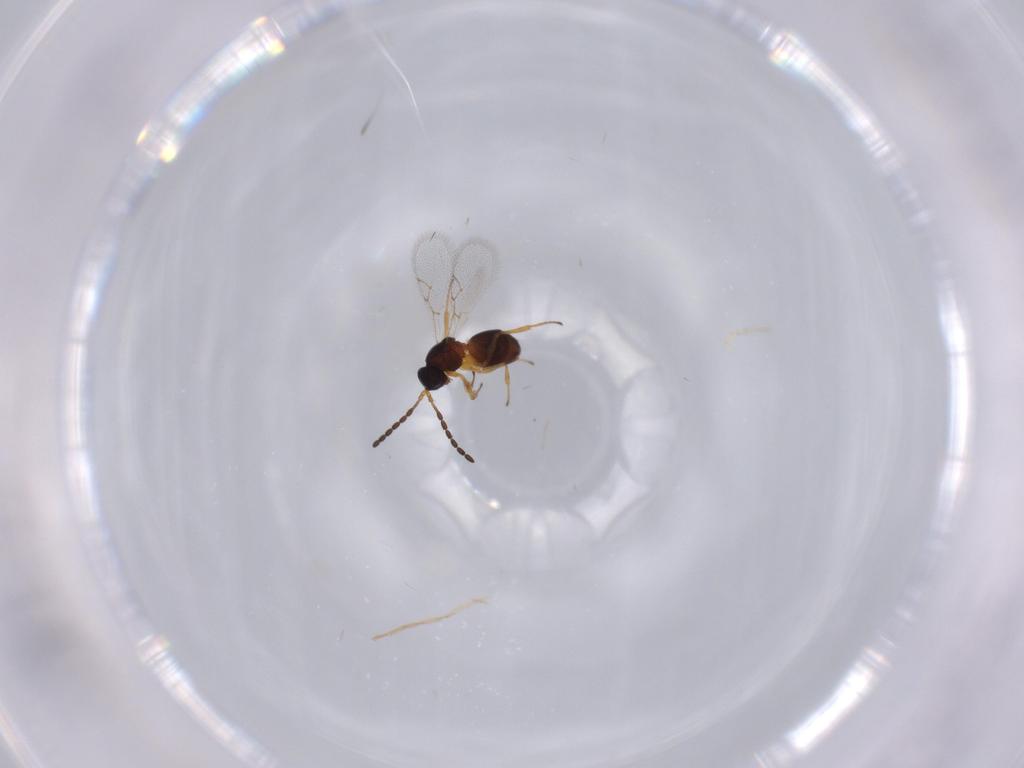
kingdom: Animalia
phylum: Arthropoda
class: Insecta
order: Hymenoptera
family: Figitidae
